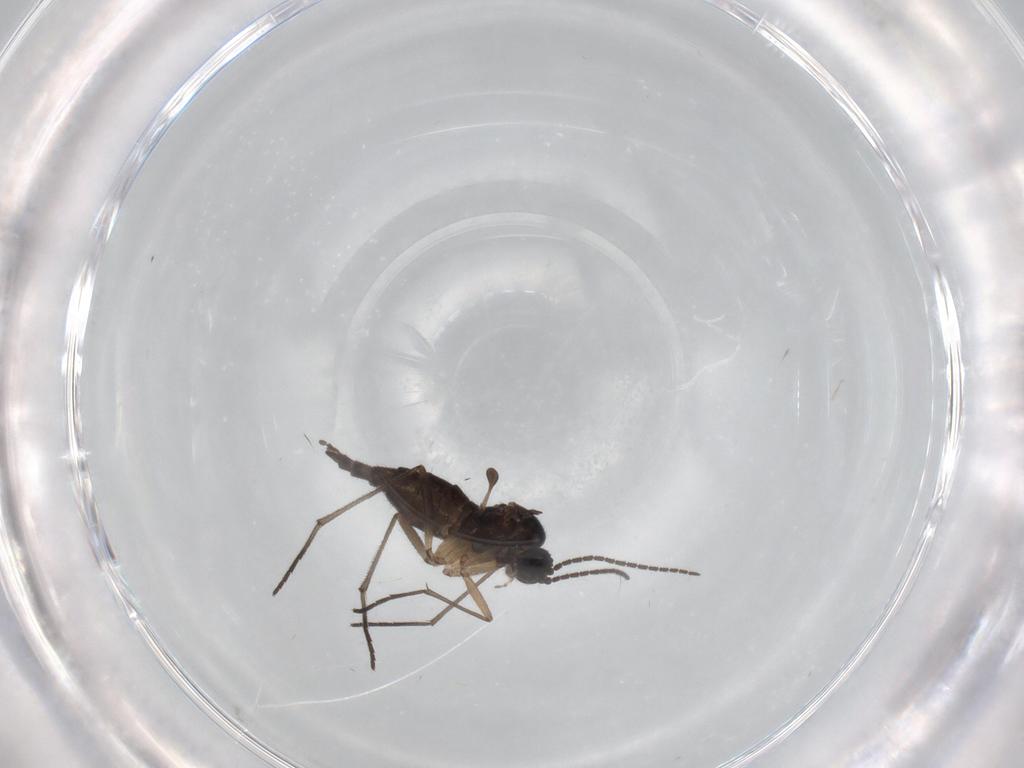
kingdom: Animalia
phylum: Arthropoda
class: Insecta
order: Diptera
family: Sciaridae
